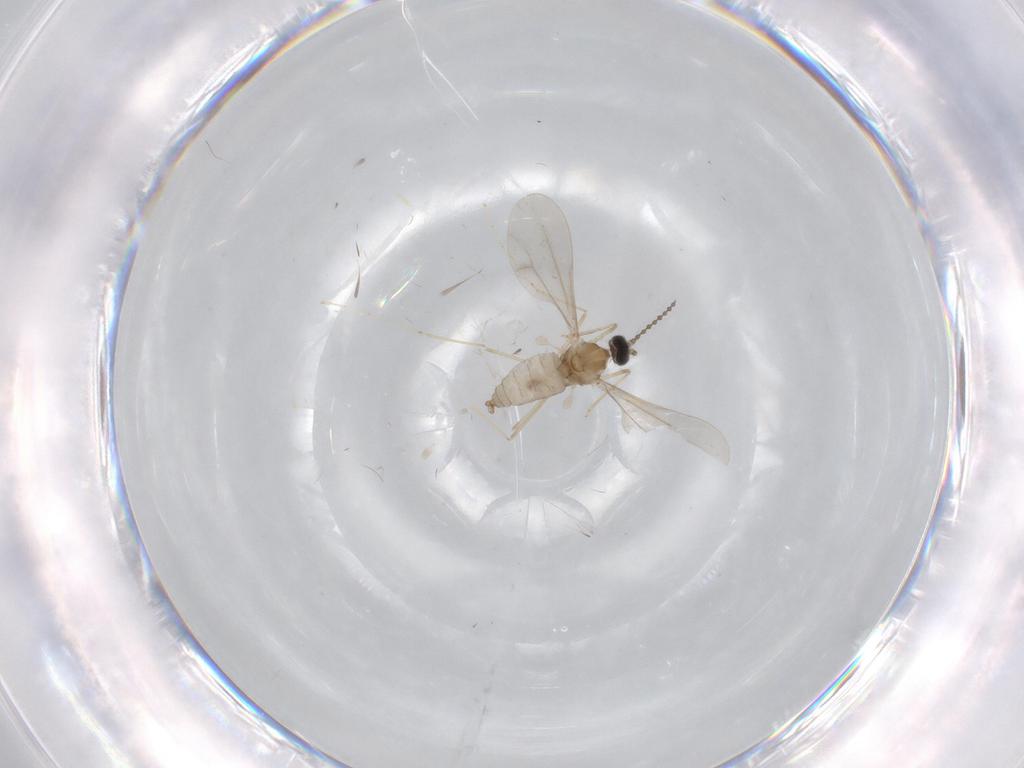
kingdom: Animalia
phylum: Arthropoda
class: Insecta
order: Diptera
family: Cecidomyiidae
